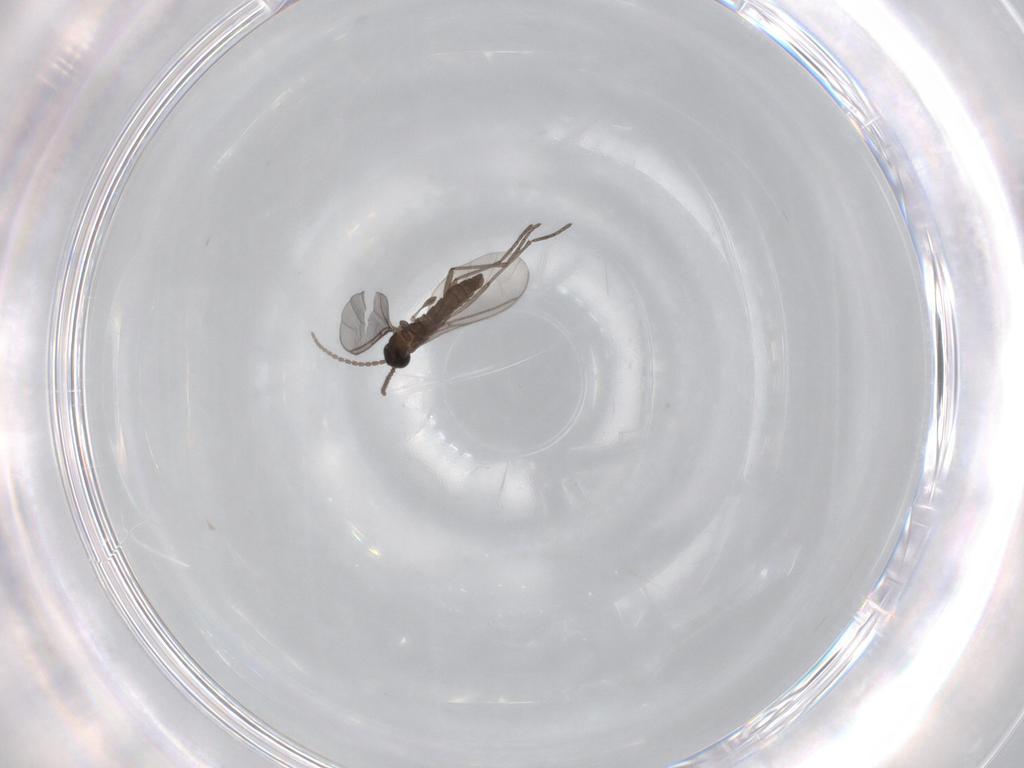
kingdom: Animalia
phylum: Arthropoda
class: Insecta
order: Diptera
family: Sciaridae
